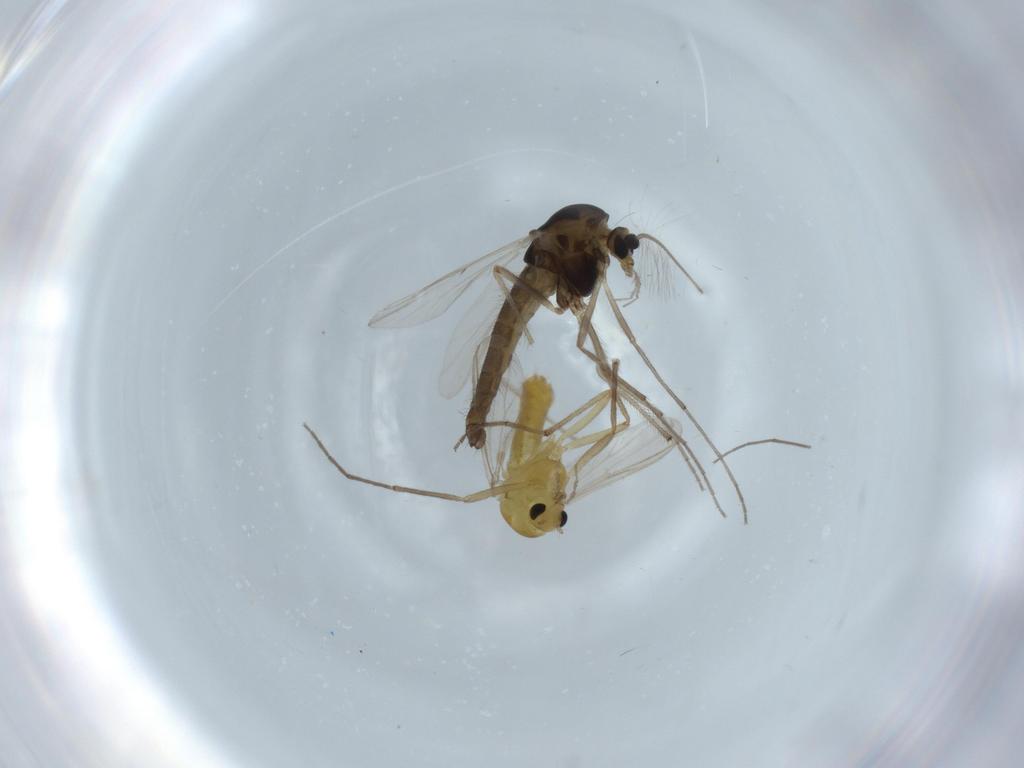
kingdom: Animalia
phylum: Arthropoda
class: Insecta
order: Diptera
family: Chironomidae
